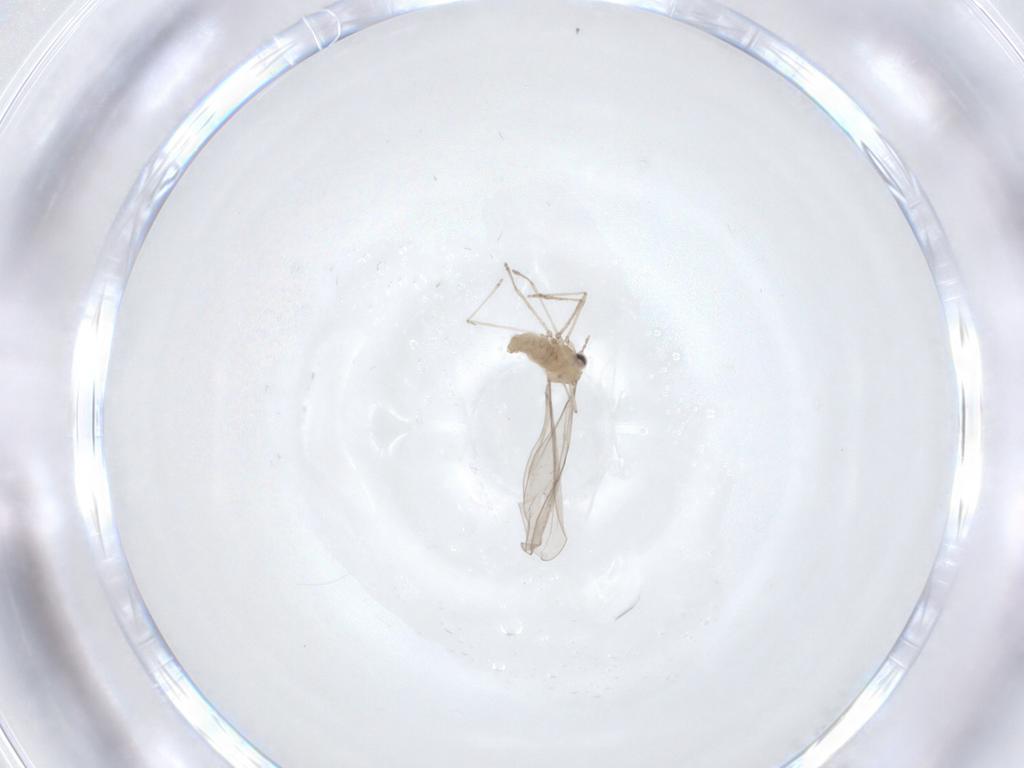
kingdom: Animalia
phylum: Arthropoda
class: Insecta
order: Diptera
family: Cecidomyiidae
